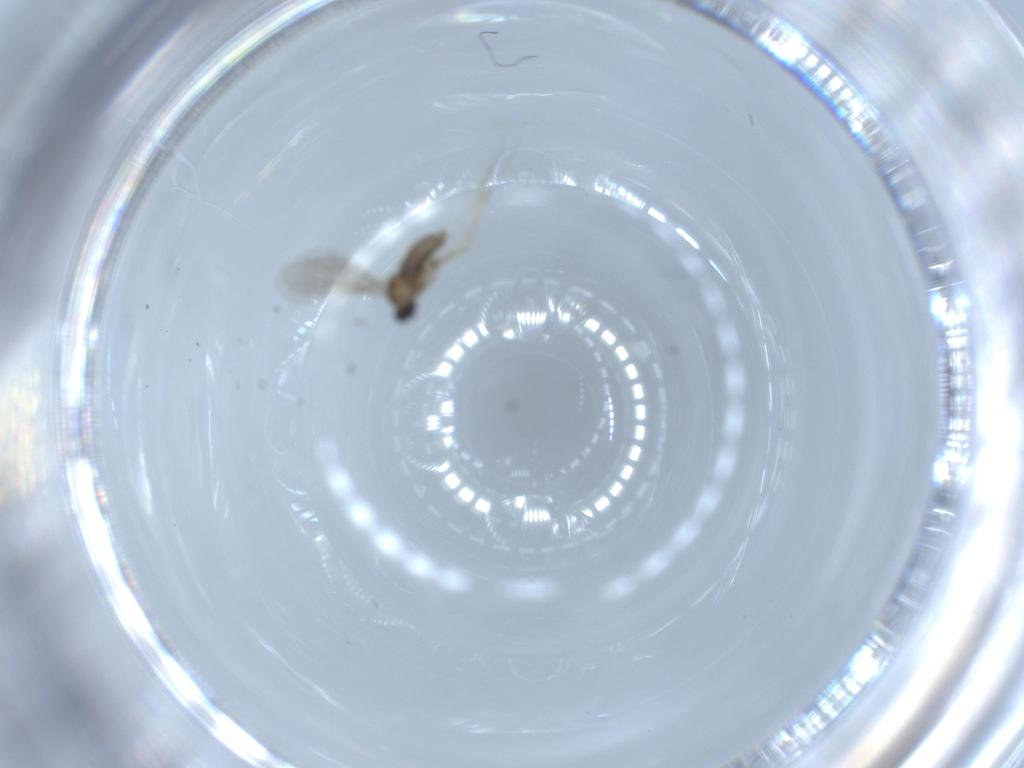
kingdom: Animalia
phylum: Arthropoda
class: Insecta
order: Diptera
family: Cecidomyiidae
